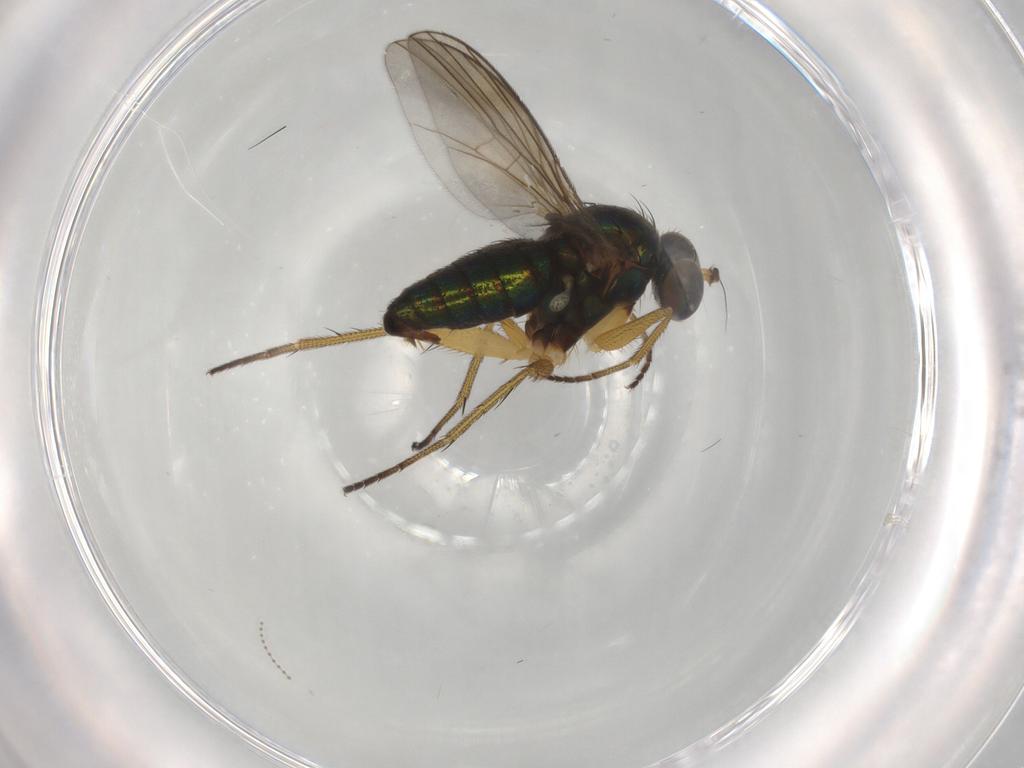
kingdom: Animalia
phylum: Arthropoda
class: Insecta
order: Diptera
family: Dolichopodidae
